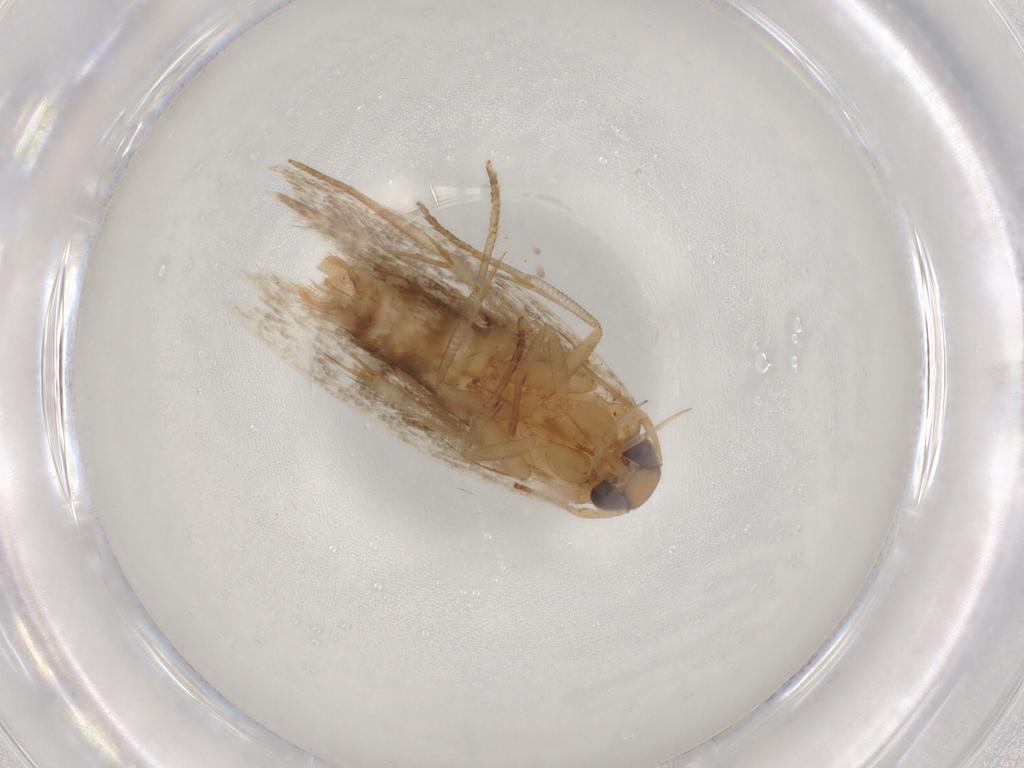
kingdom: Animalia
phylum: Arthropoda
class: Insecta
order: Lepidoptera
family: Cosmopterigidae
